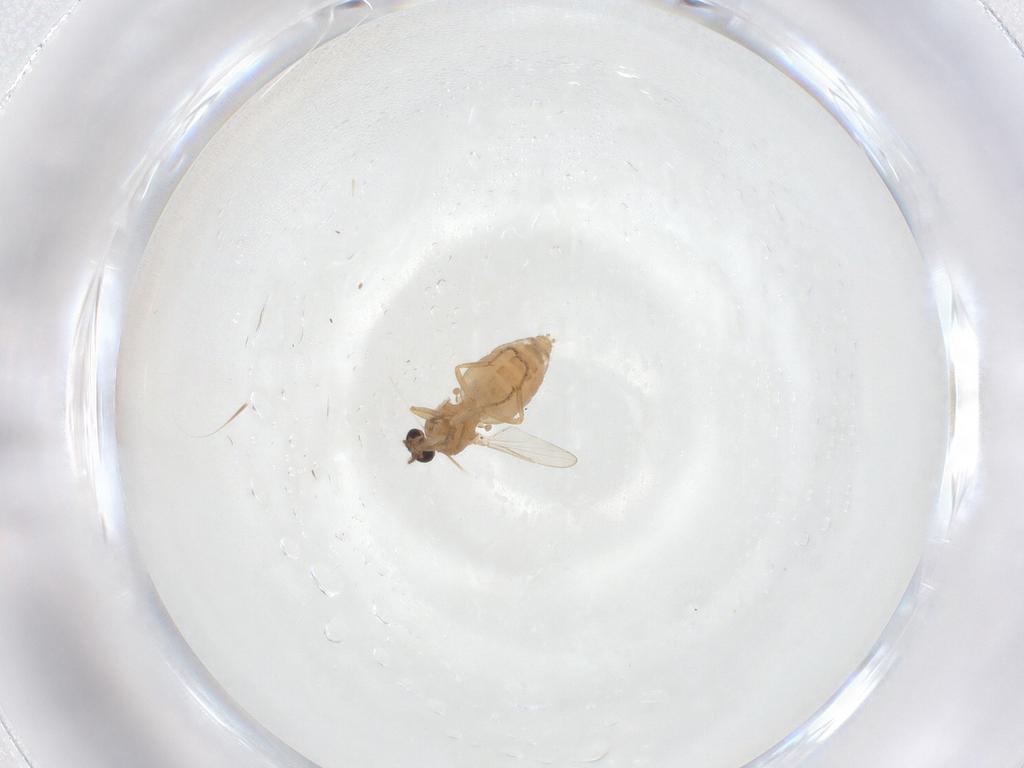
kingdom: Animalia
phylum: Arthropoda
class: Insecta
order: Diptera
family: Ceratopogonidae
